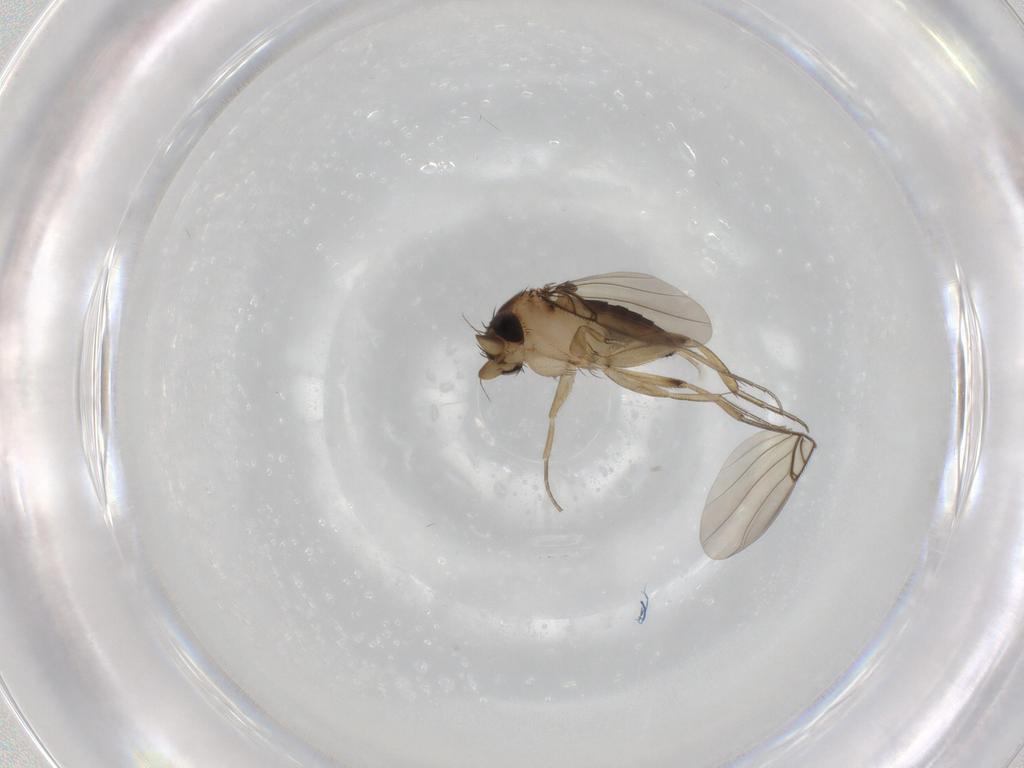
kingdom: Animalia
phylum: Arthropoda
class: Insecta
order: Diptera
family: Phoridae
